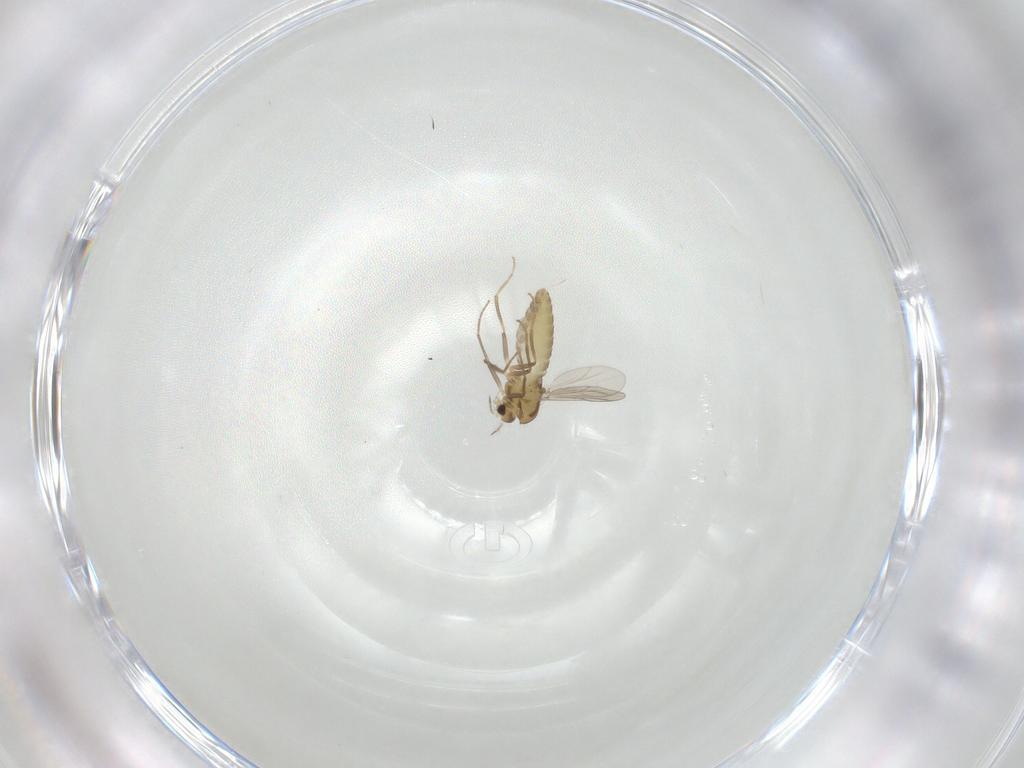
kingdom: Animalia
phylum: Arthropoda
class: Insecta
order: Diptera
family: Chironomidae
